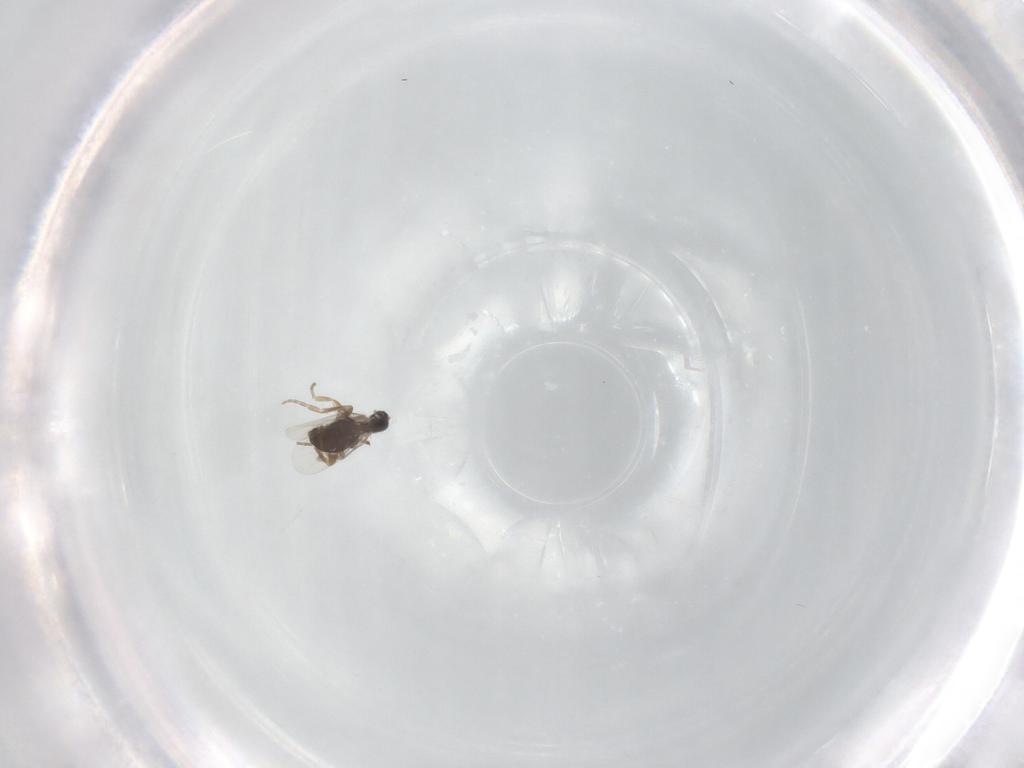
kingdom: Animalia
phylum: Arthropoda
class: Insecta
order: Diptera
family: Phoridae
